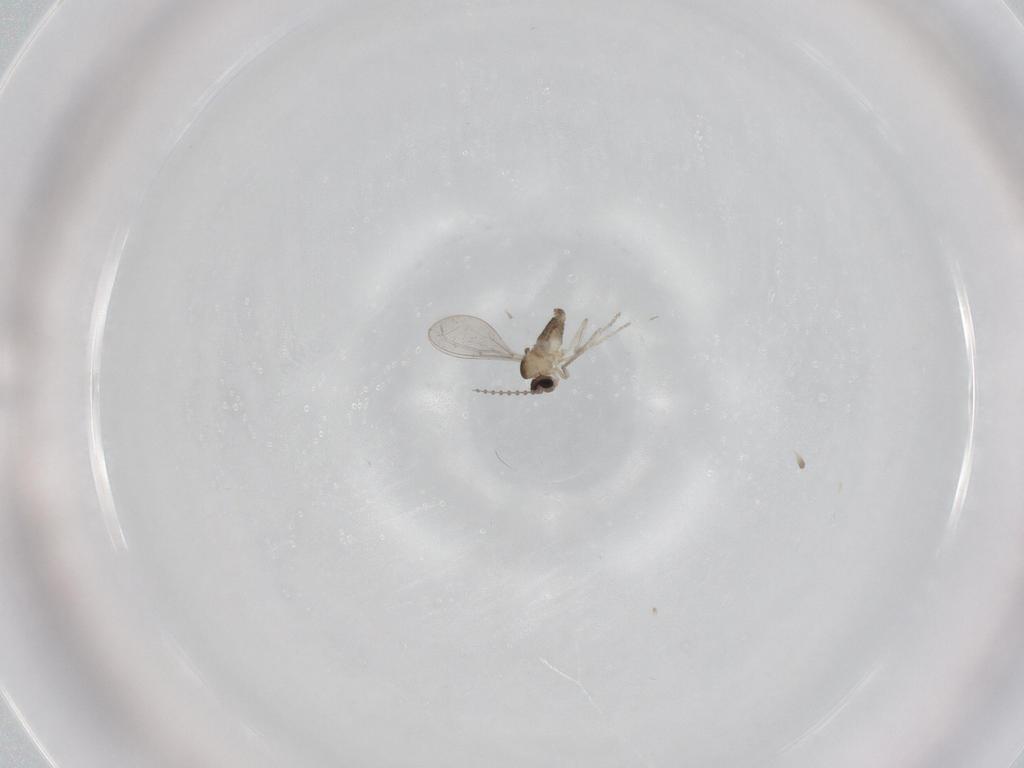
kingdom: Animalia
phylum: Arthropoda
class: Insecta
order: Diptera
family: Cecidomyiidae
